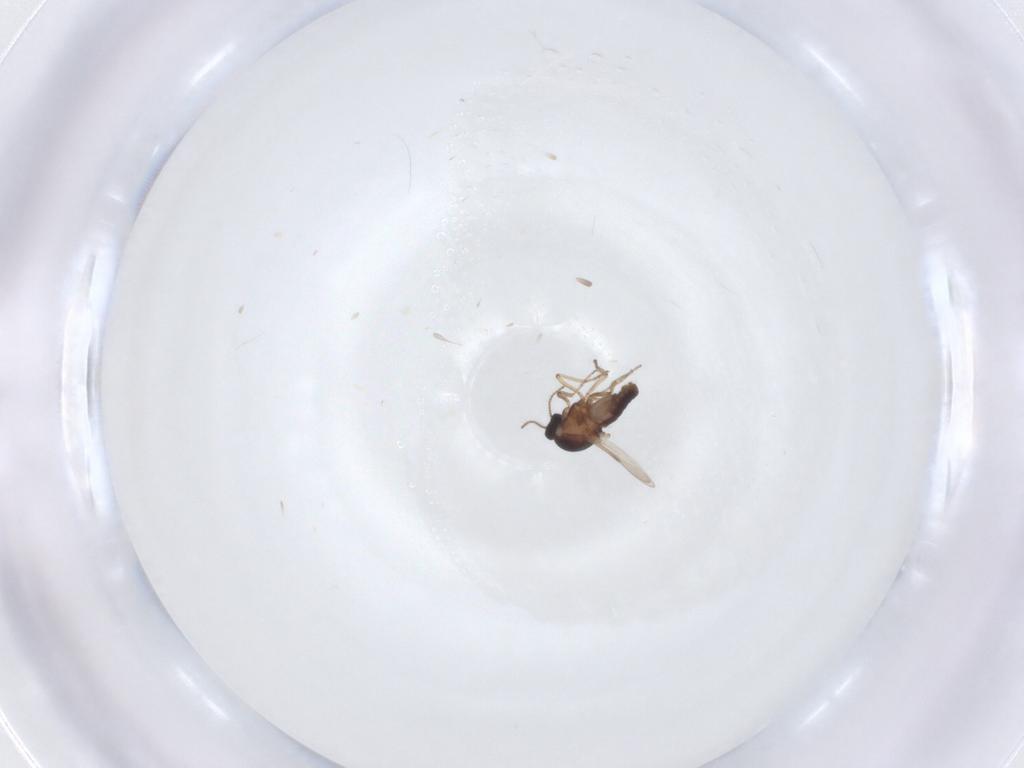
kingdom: Animalia
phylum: Arthropoda
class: Insecta
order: Diptera
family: Ceratopogonidae
